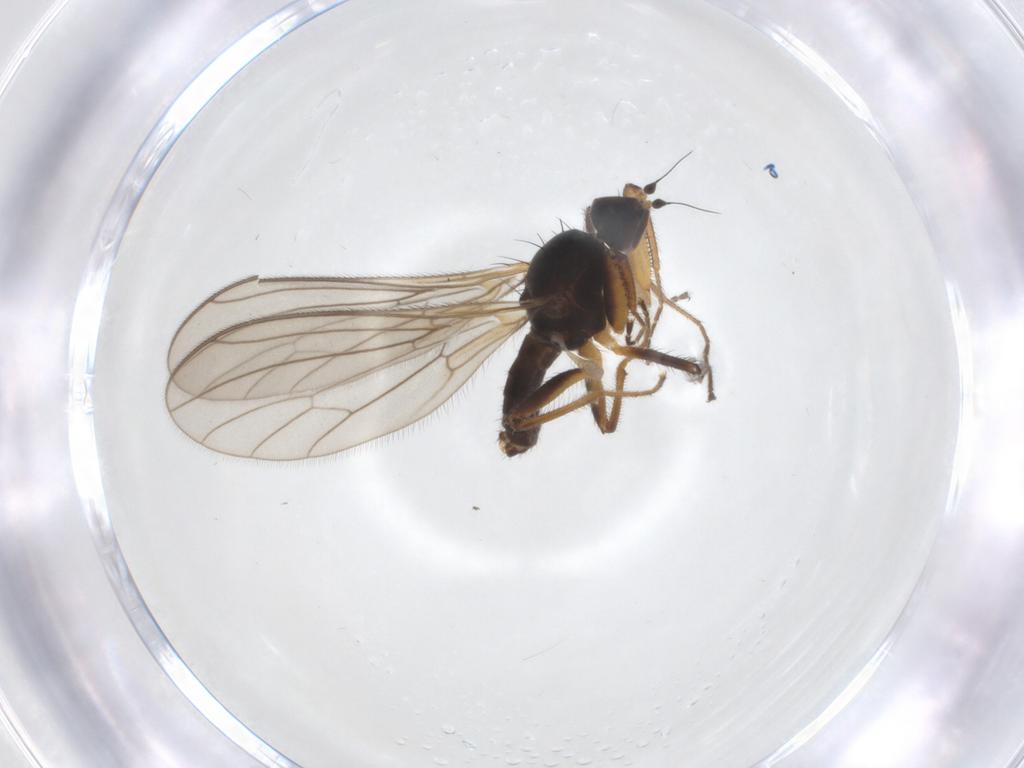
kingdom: Animalia
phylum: Arthropoda
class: Insecta
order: Diptera
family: Empididae
